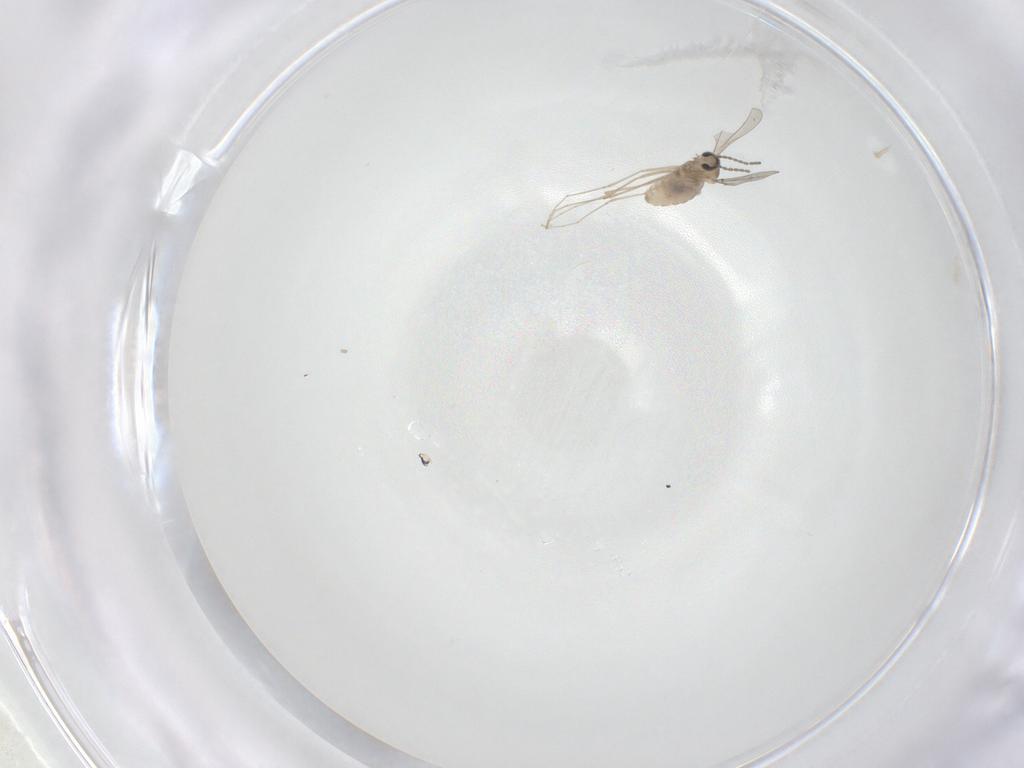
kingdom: Animalia
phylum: Arthropoda
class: Insecta
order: Diptera
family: Cecidomyiidae
